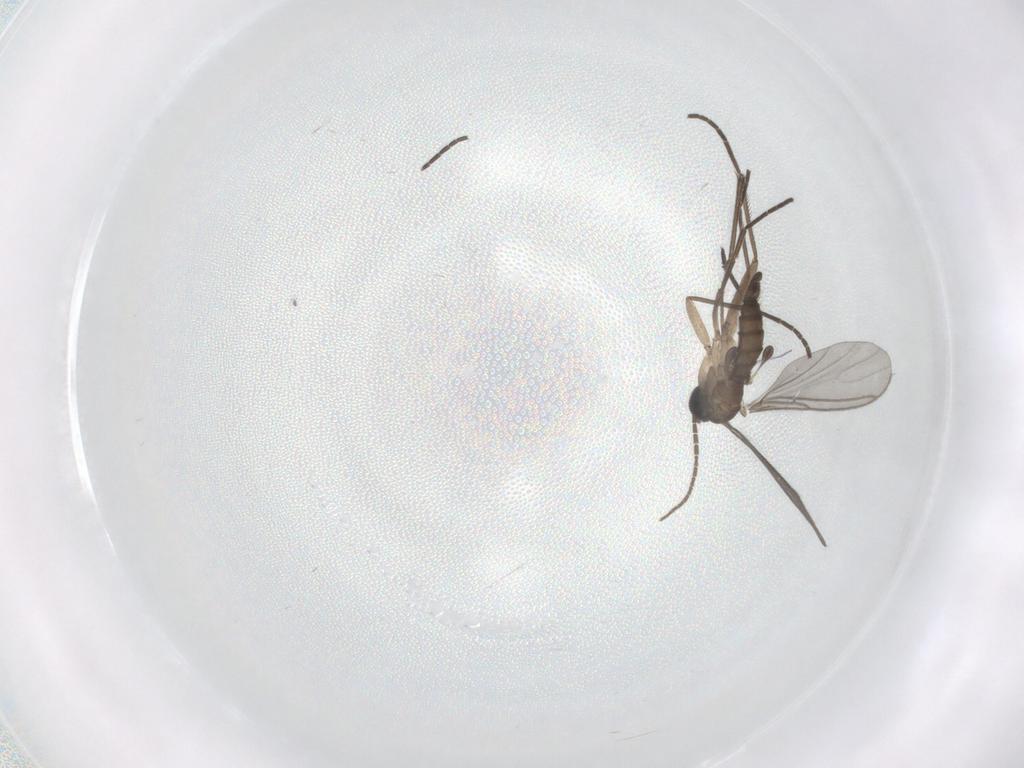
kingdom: Animalia
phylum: Arthropoda
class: Insecta
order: Diptera
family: Sciaridae
